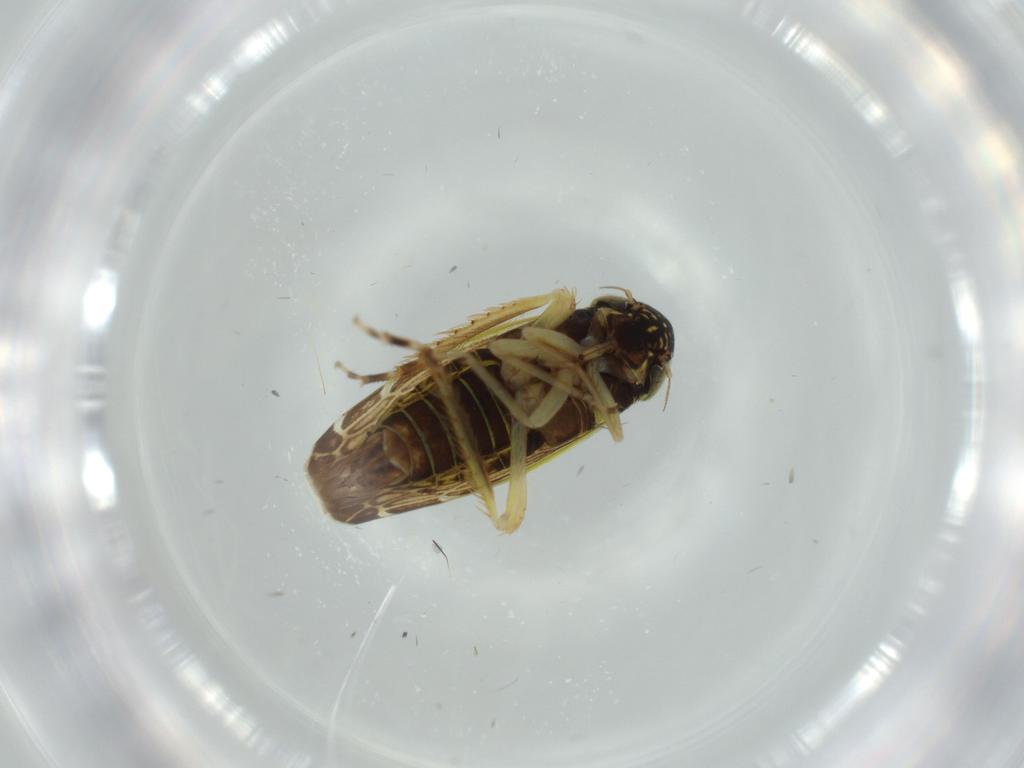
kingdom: Animalia
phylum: Arthropoda
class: Insecta
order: Hemiptera
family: Cicadellidae
